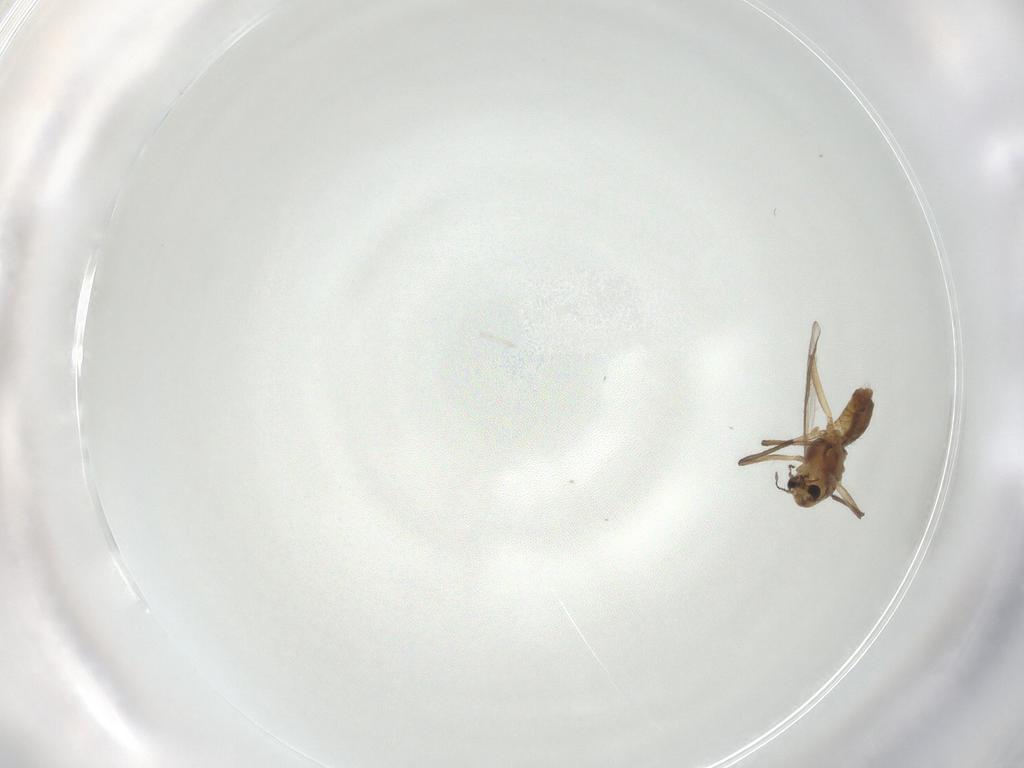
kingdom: Animalia
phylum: Arthropoda
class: Insecta
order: Diptera
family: Chironomidae
